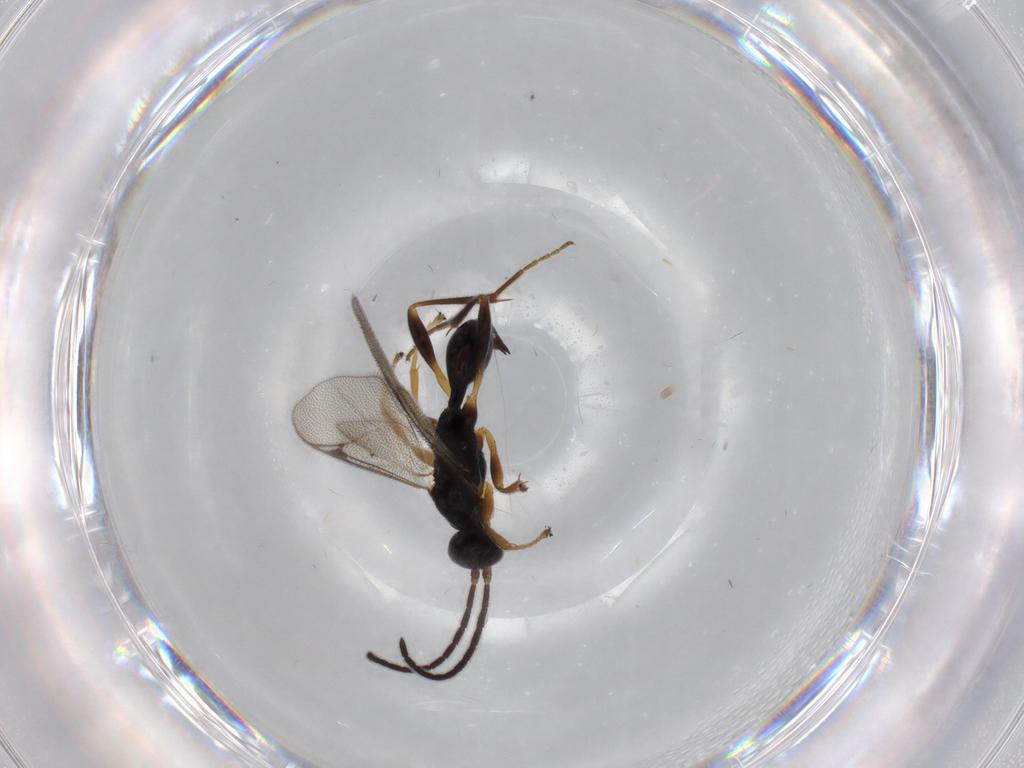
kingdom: Animalia
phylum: Arthropoda
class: Insecta
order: Hymenoptera
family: Proctotrupidae
